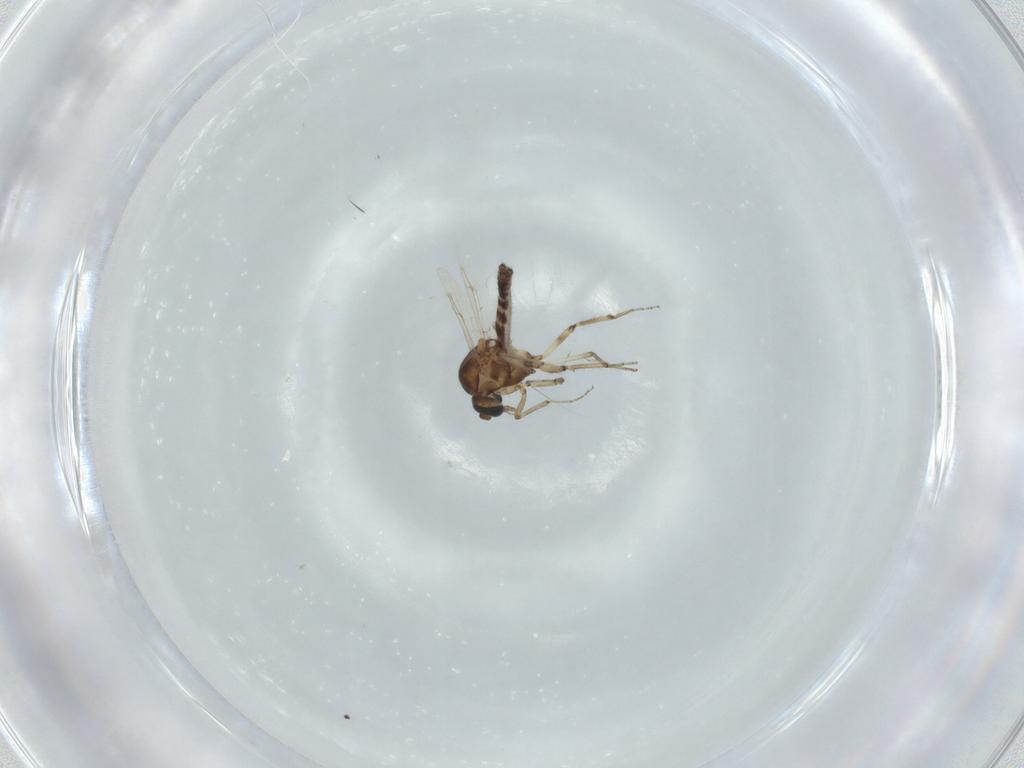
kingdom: Animalia
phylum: Arthropoda
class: Insecta
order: Diptera
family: Ceratopogonidae
